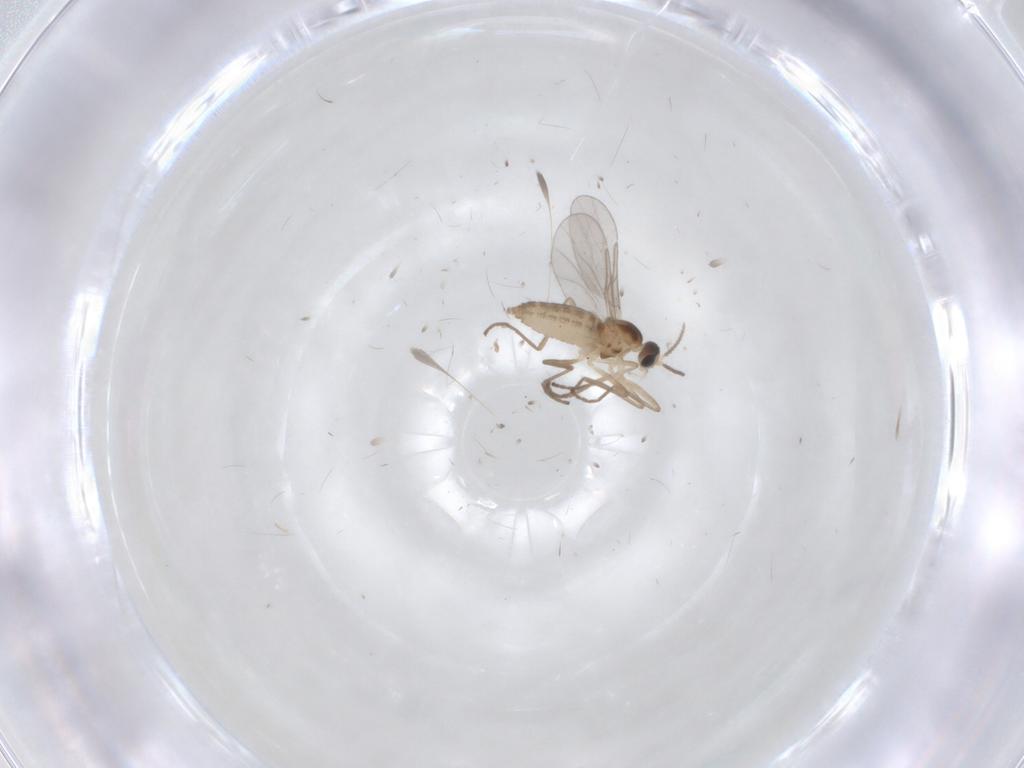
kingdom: Animalia
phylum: Arthropoda
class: Insecta
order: Diptera
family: Cecidomyiidae
